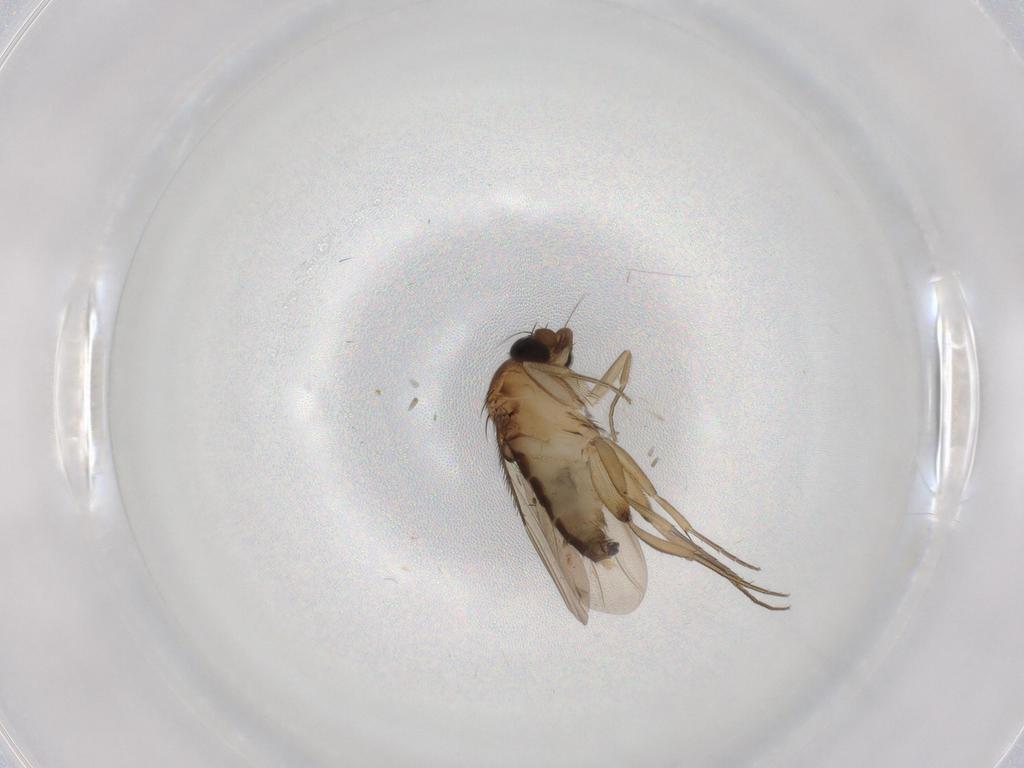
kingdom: Animalia
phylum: Arthropoda
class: Insecta
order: Diptera
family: Phoridae
